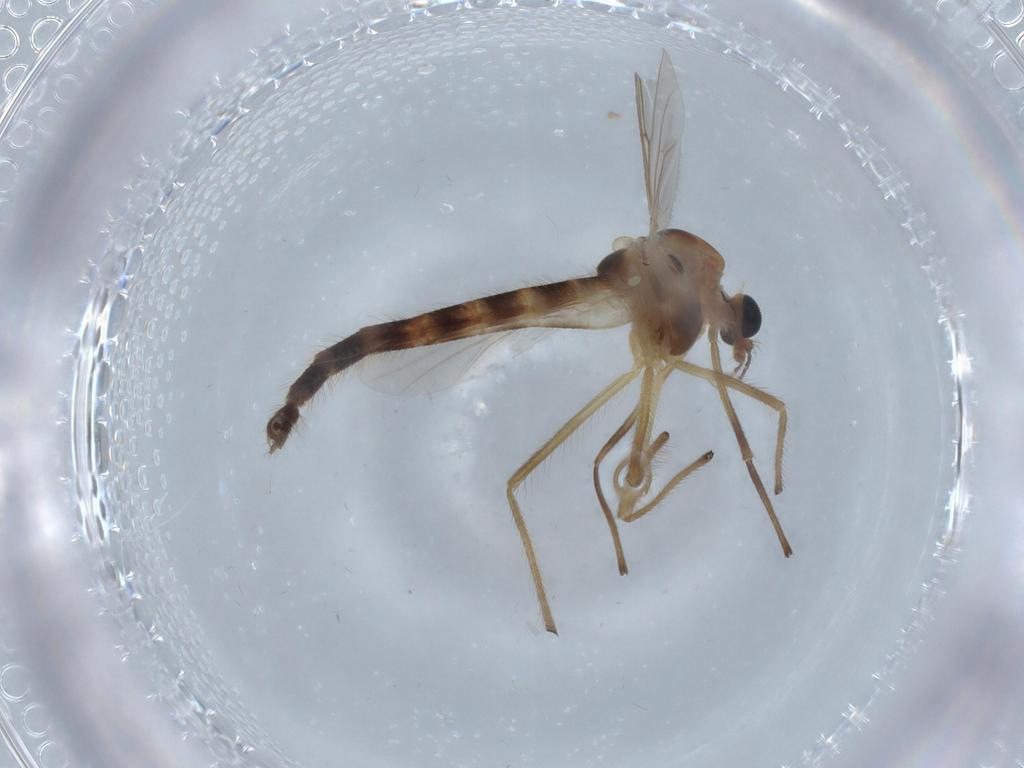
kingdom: Animalia
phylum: Arthropoda
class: Insecta
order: Diptera
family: Chironomidae
